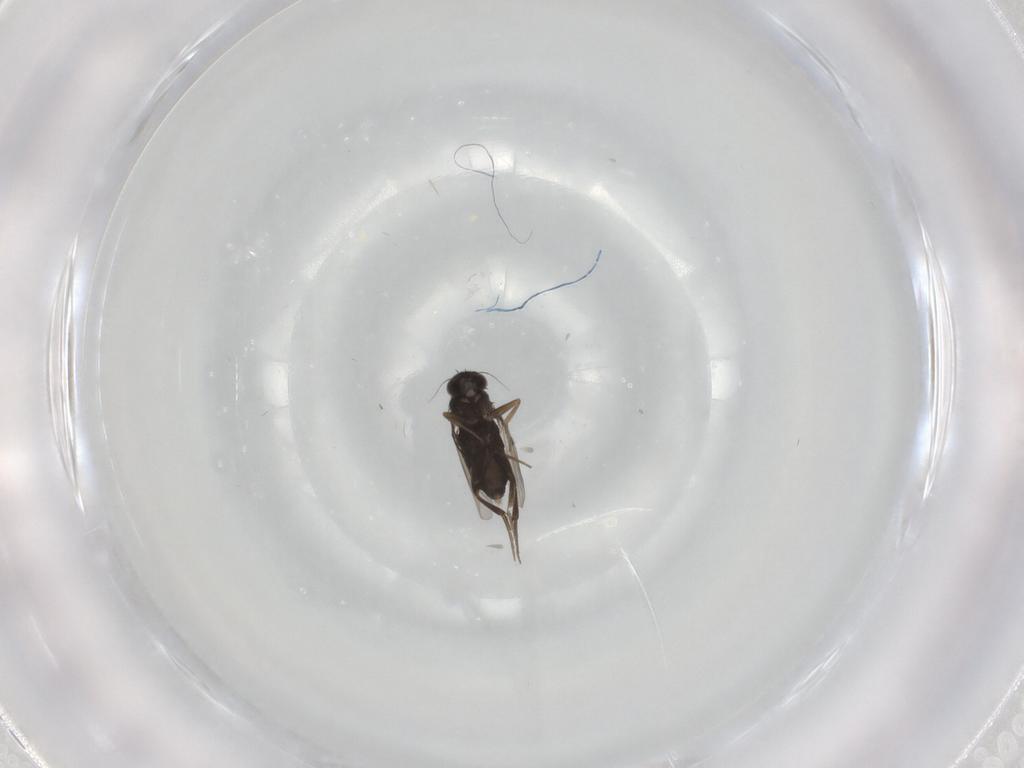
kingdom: Animalia
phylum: Arthropoda
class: Insecta
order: Diptera
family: Phoridae
